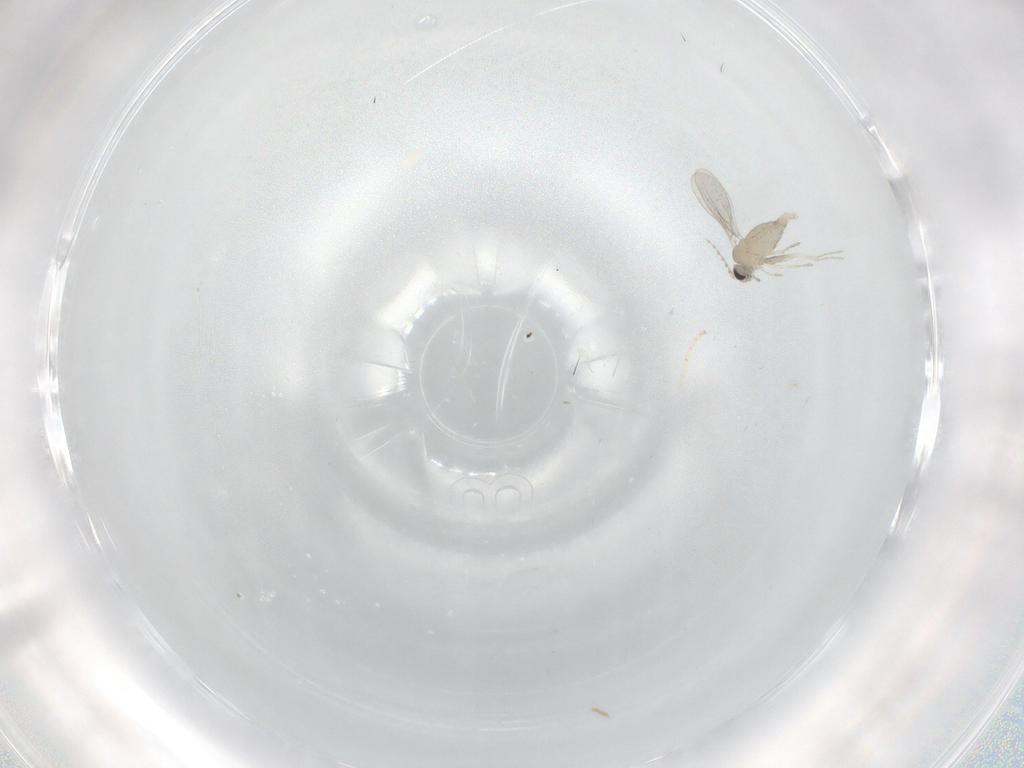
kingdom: Animalia
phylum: Arthropoda
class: Insecta
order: Diptera
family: Cecidomyiidae
